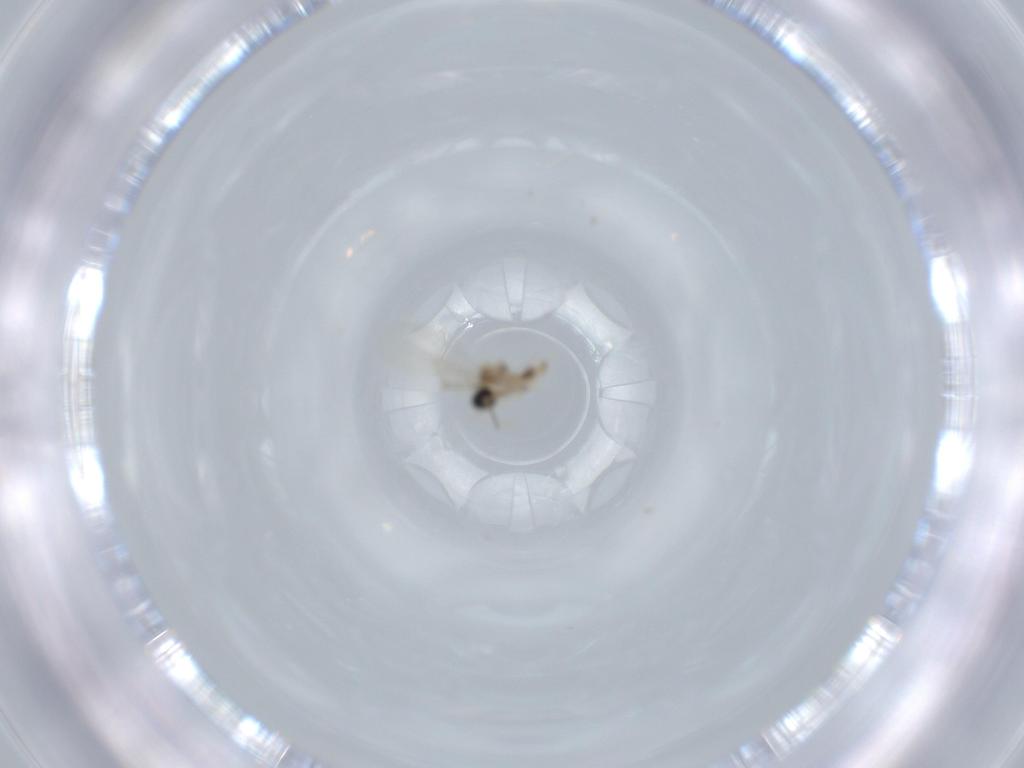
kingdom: Animalia
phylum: Arthropoda
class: Insecta
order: Diptera
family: Cecidomyiidae
